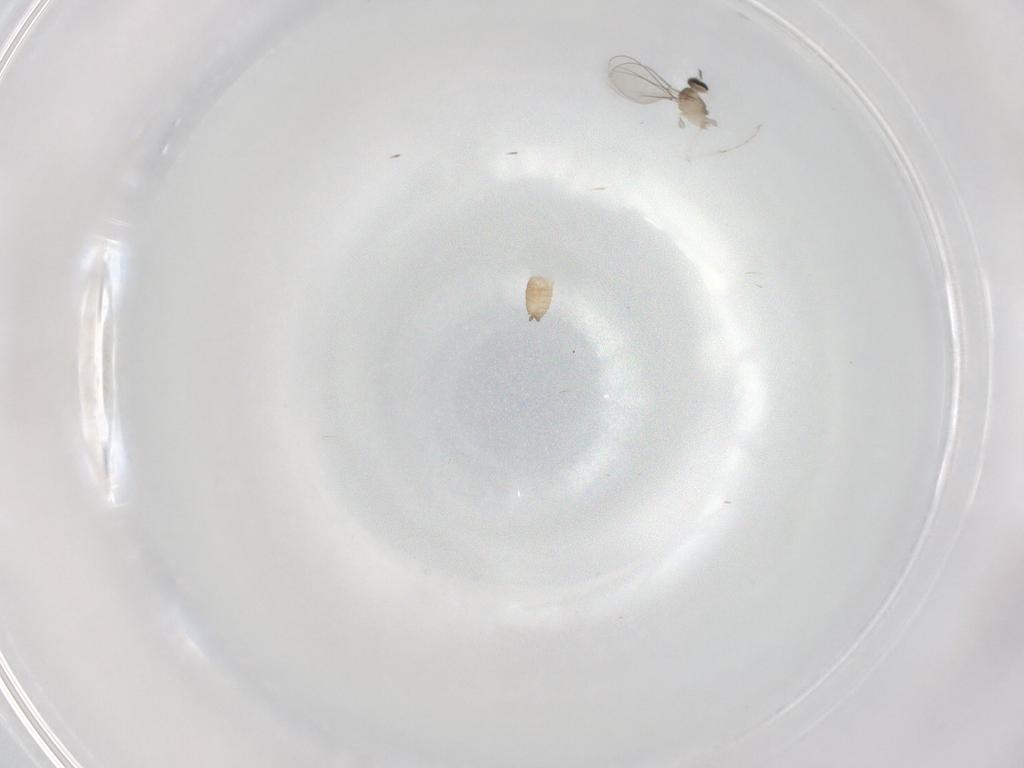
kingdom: Animalia
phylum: Arthropoda
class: Insecta
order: Diptera
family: Cecidomyiidae
